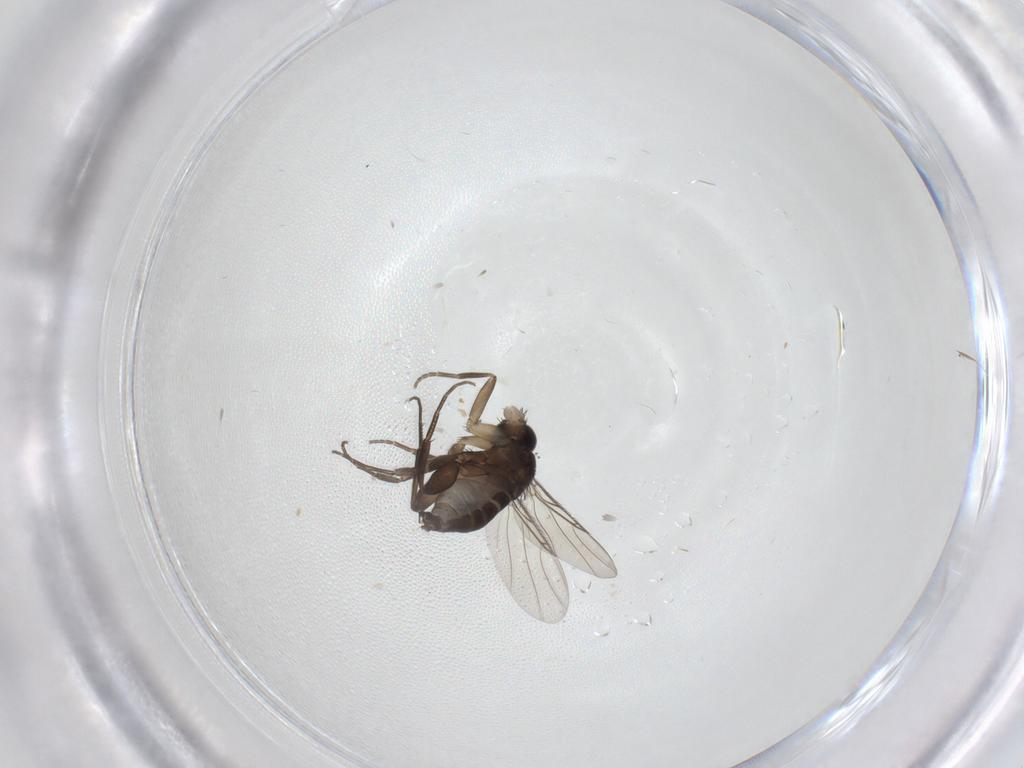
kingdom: Animalia
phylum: Arthropoda
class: Insecta
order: Diptera
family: Phoridae
